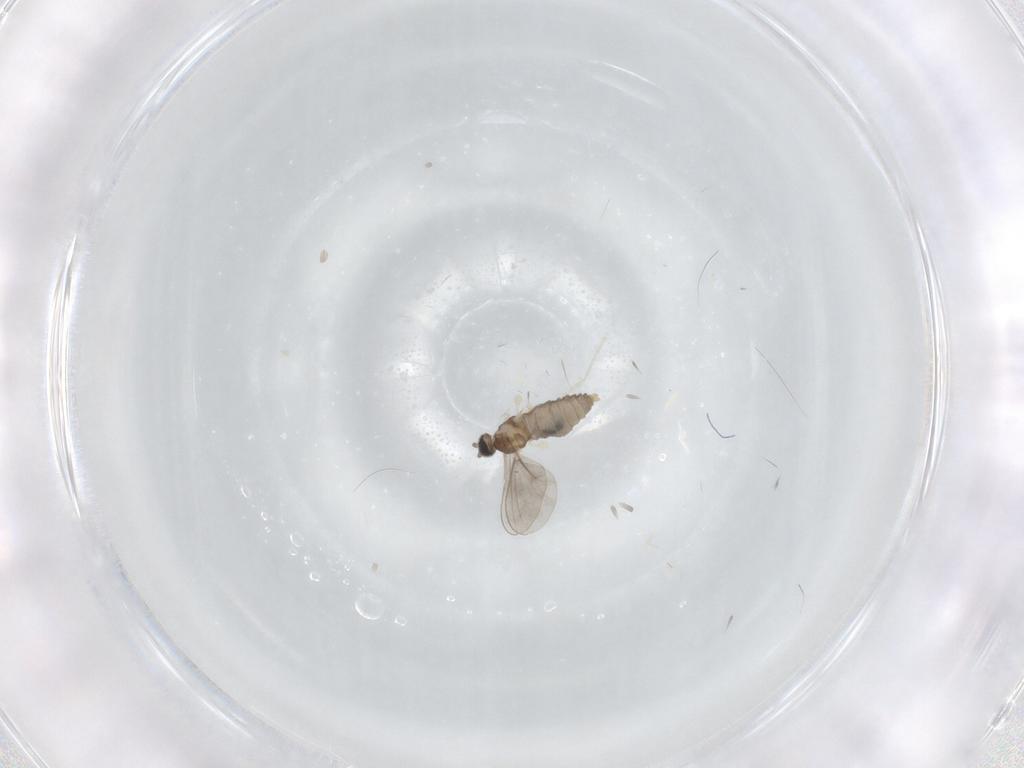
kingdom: Animalia
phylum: Arthropoda
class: Insecta
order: Diptera
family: Cecidomyiidae
